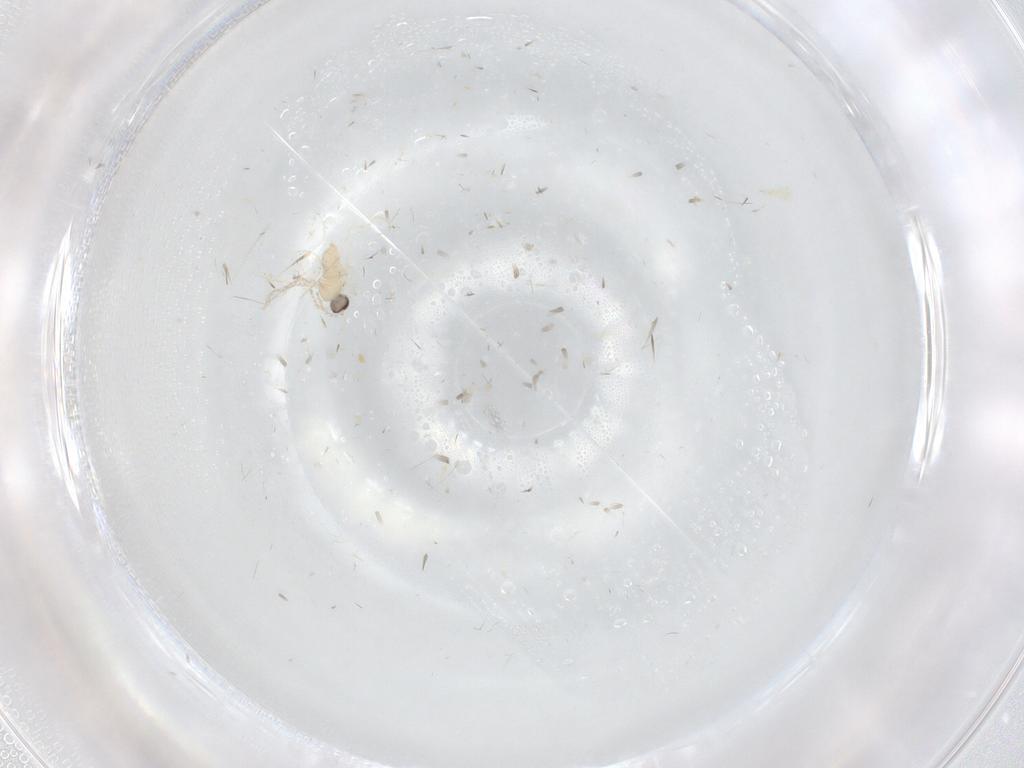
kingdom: Animalia
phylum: Arthropoda
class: Insecta
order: Diptera
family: Cecidomyiidae
